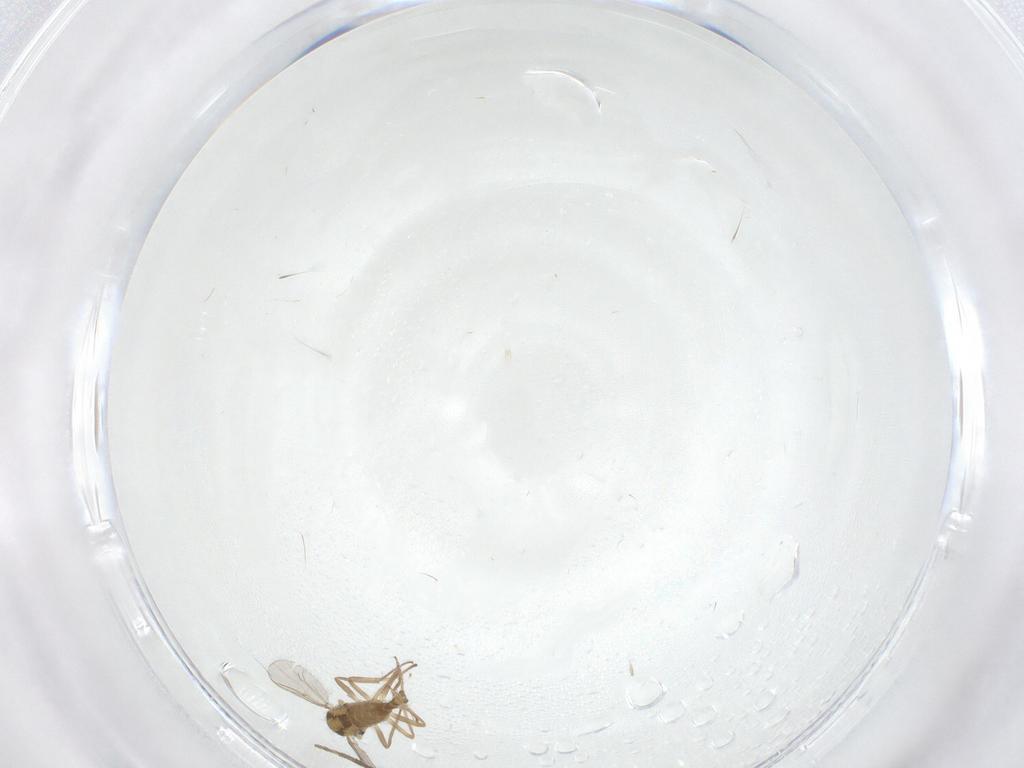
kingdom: Animalia
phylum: Arthropoda
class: Insecta
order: Diptera
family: Chironomidae
